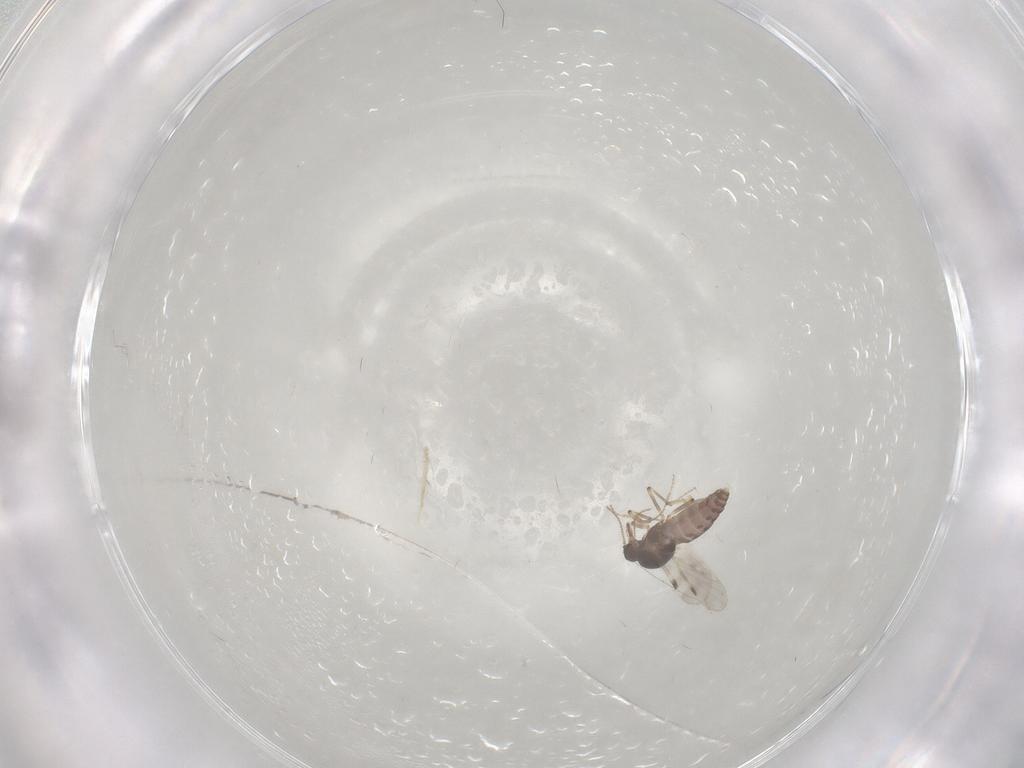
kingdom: Animalia
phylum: Arthropoda
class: Insecta
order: Diptera
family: Cecidomyiidae
